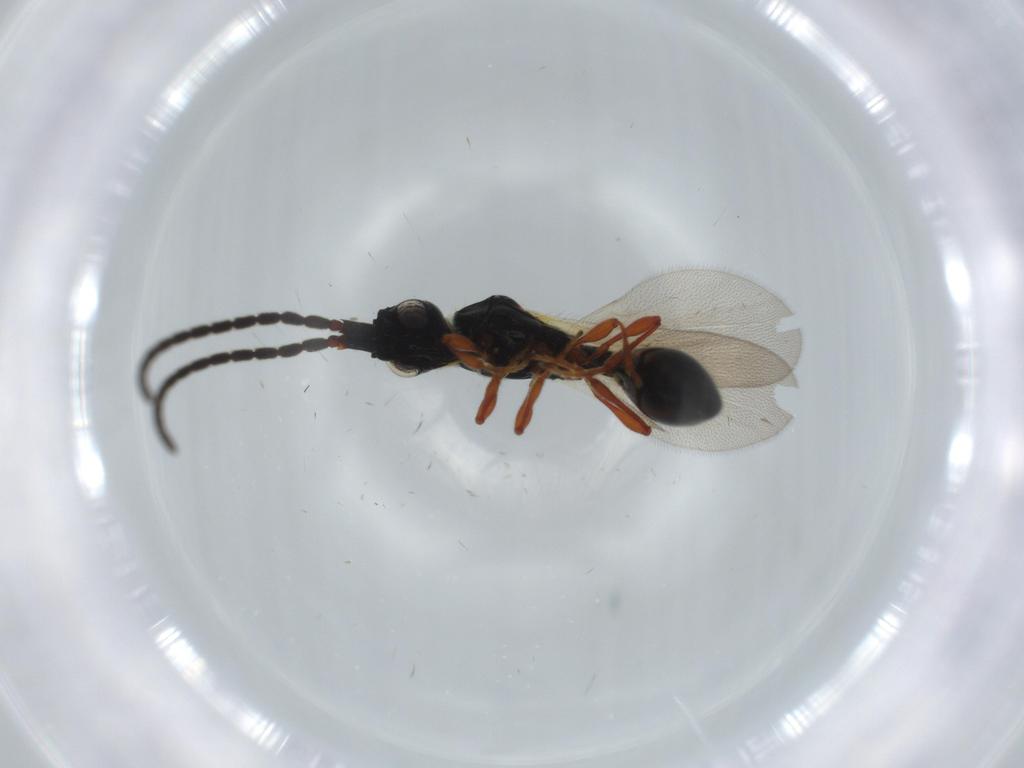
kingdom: Animalia
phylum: Arthropoda
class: Insecta
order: Hymenoptera
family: Diapriidae
